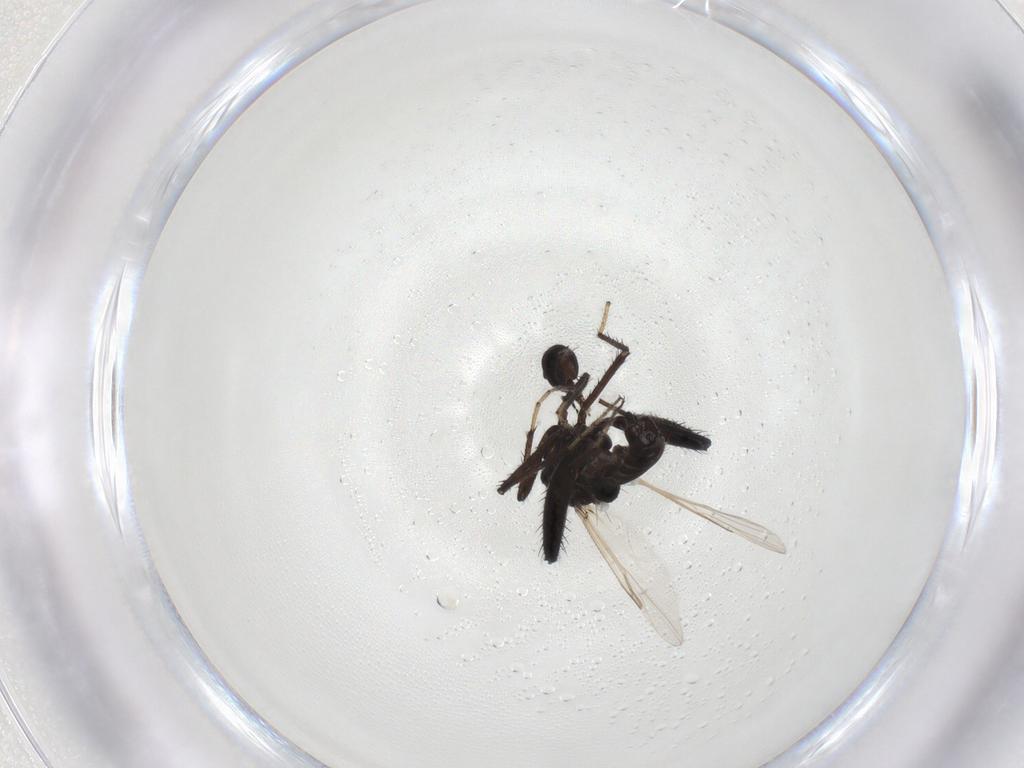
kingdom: Animalia
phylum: Arthropoda
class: Insecta
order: Diptera
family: Ceratopogonidae
